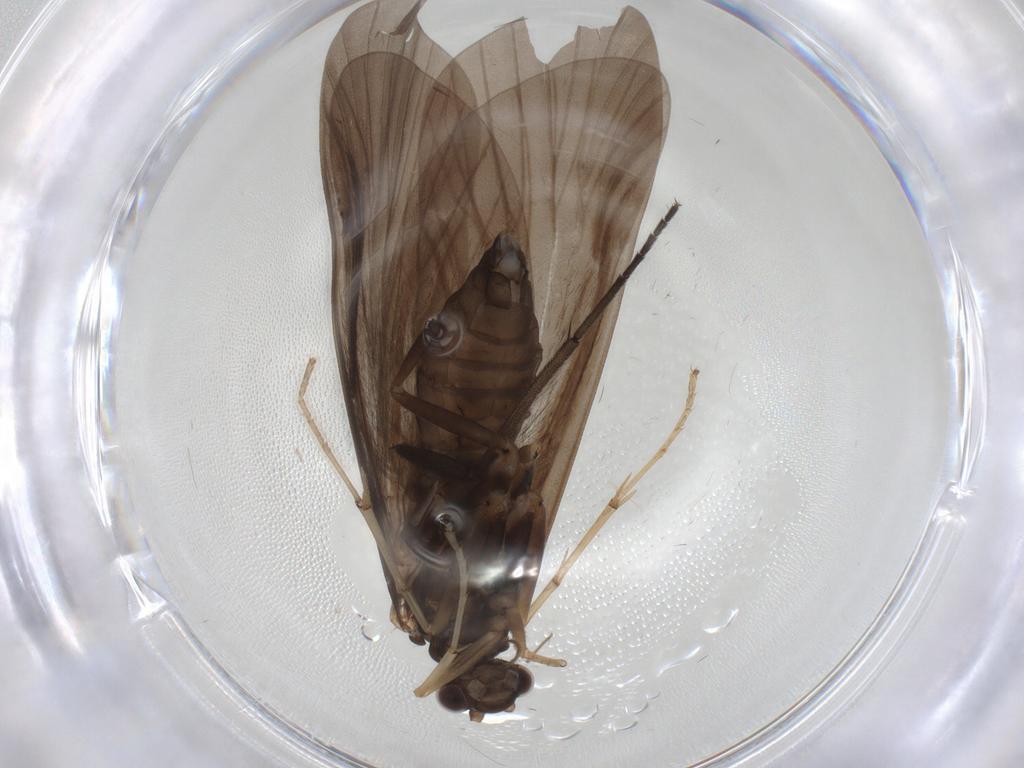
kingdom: Animalia
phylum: Arthropoda
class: Insecta
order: Trichoptera
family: Hydropsychidae
